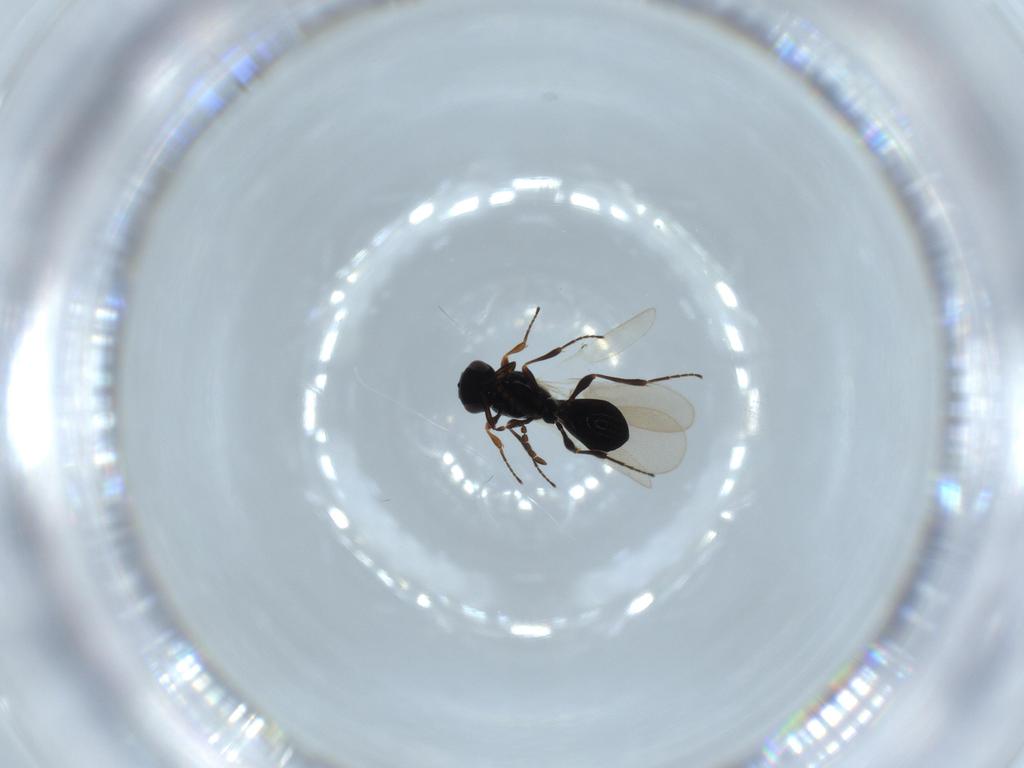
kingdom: Animalia
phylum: Arthropoda
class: Insecta
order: Hymenoptera
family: Platygastridae
